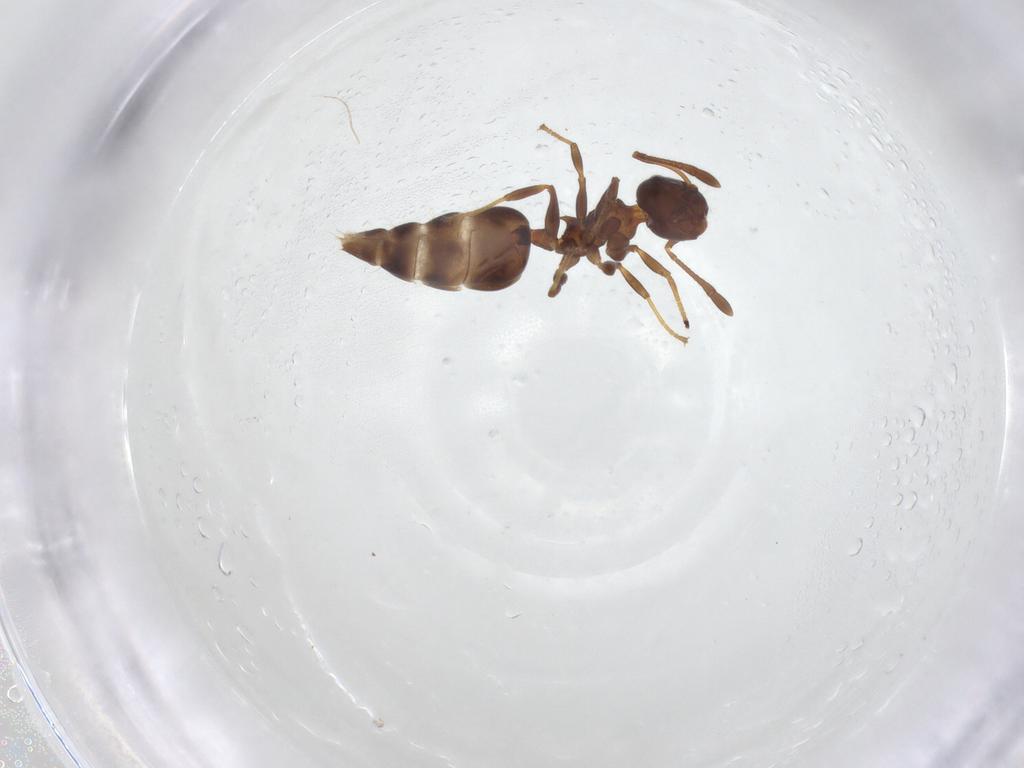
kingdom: Animalia
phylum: Arthropoda
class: Insecta
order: Hymenoptera
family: Formicidae
